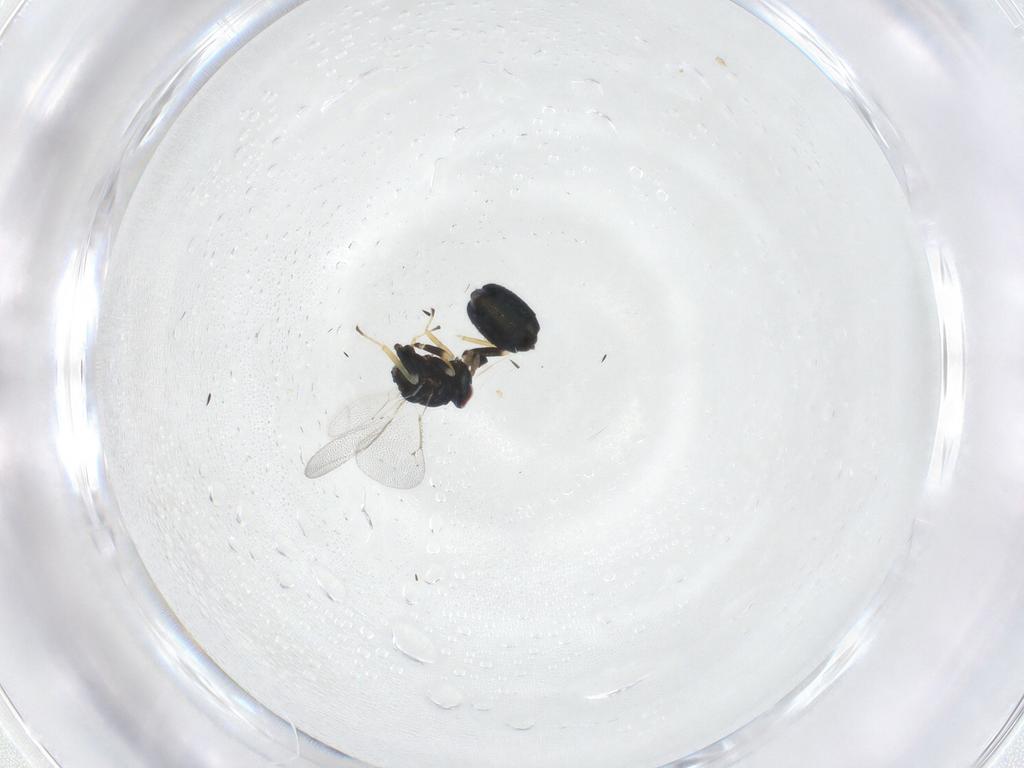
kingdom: Animalia
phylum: Arthropoda
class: Insecta
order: Hymenoptera
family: Eulophidae
